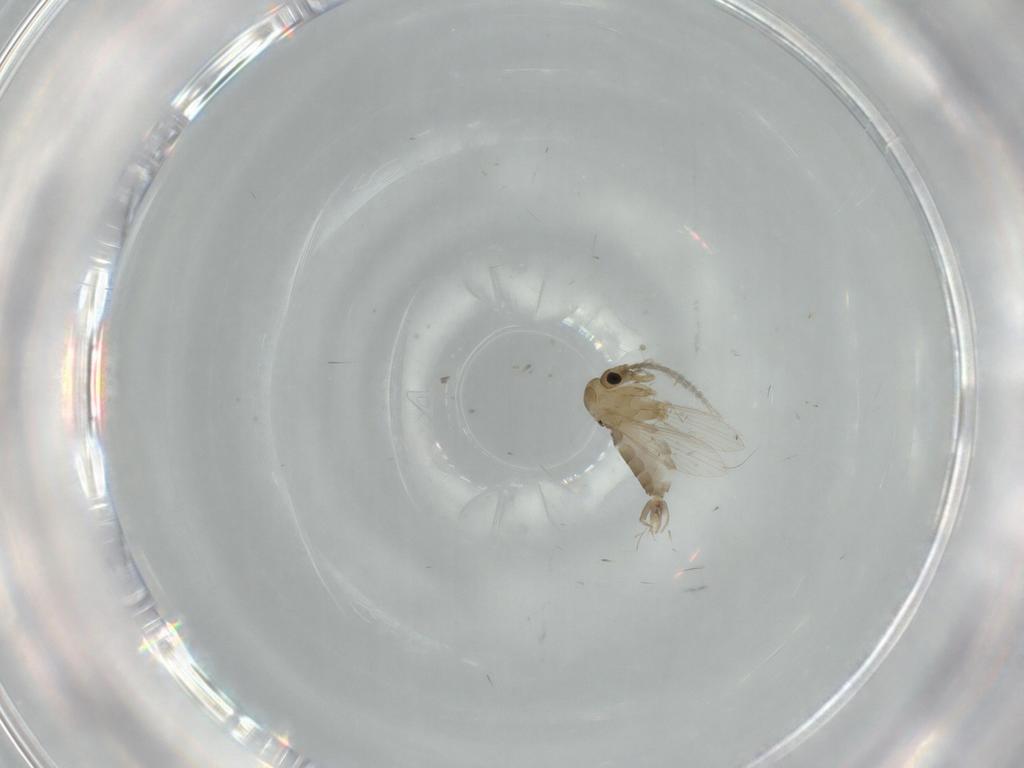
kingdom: Animalia
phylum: Arthropoda
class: Insecta
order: Diptera
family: Psychodidae
